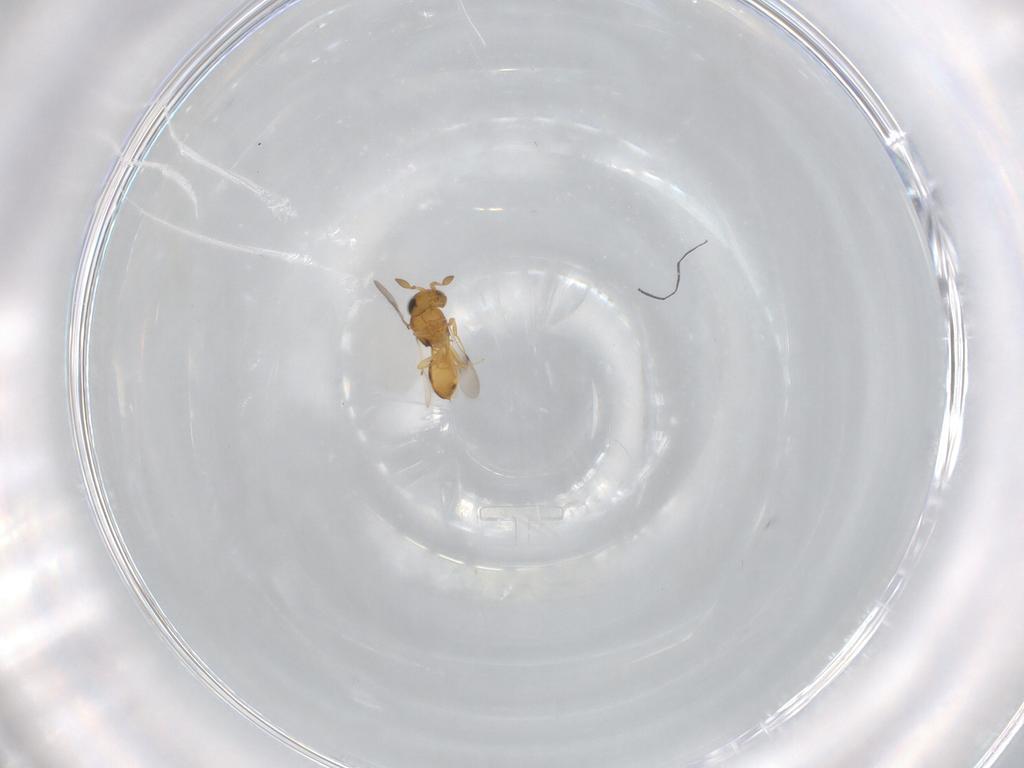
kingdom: Animalia
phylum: Arthropoda
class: Insecta
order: Hymenoptera
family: Scelionidae
